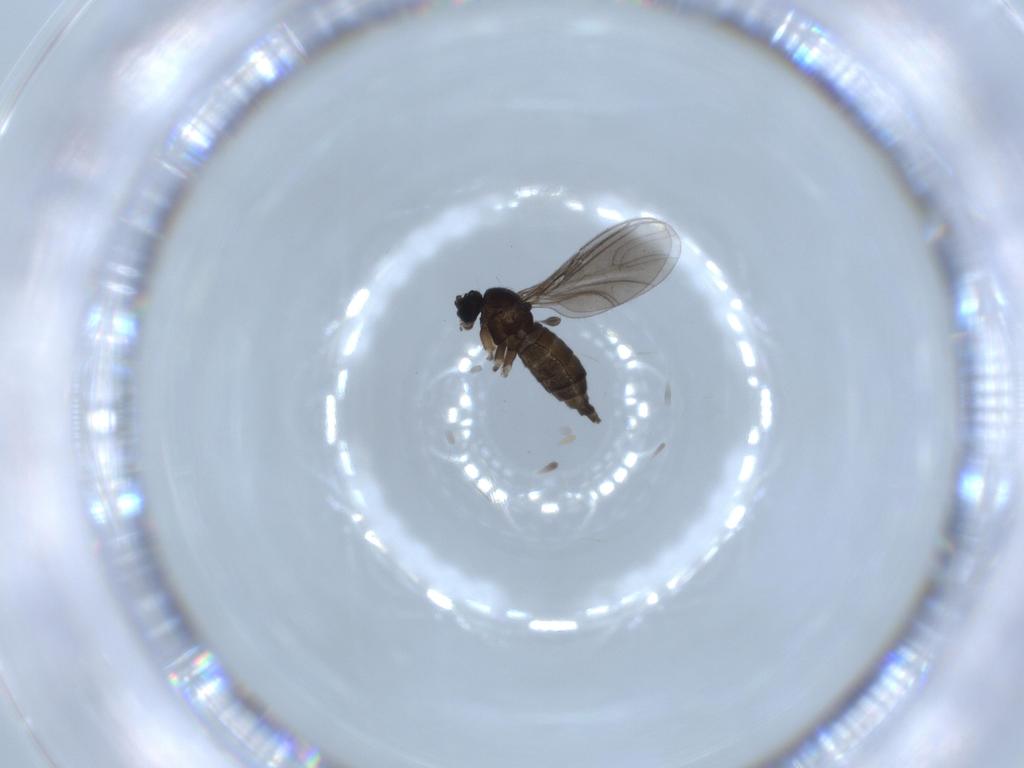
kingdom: Animalia
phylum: Arthropoda
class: Insecta
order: Diptera
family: Sciaridae
